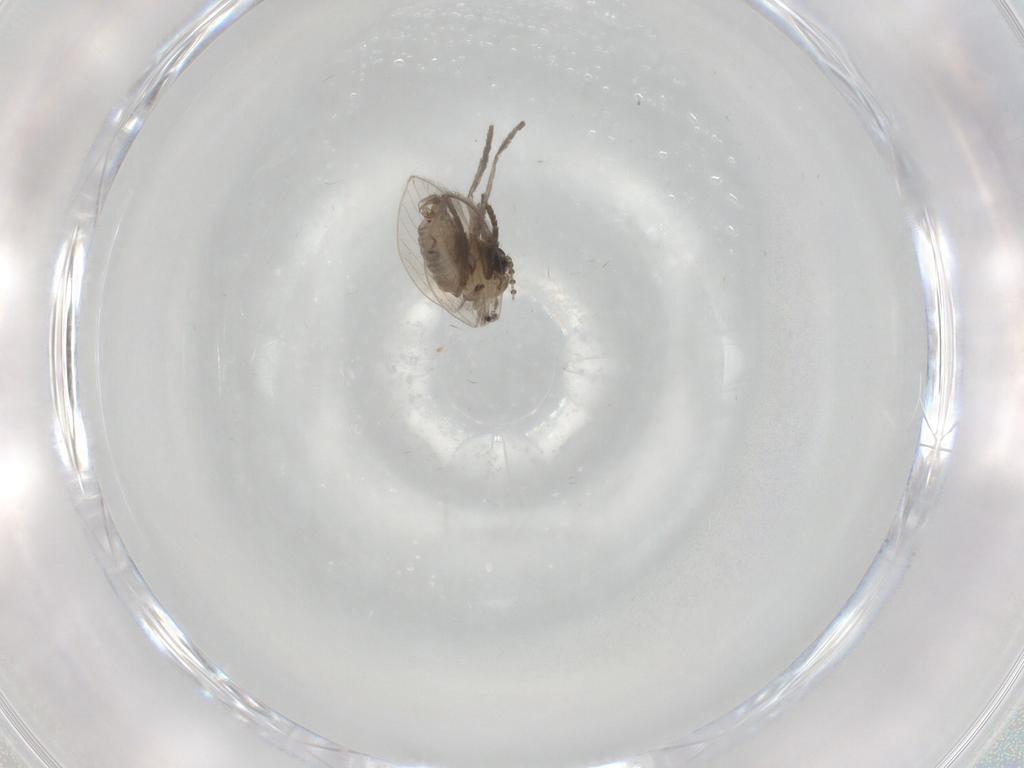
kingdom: Animalia
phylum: Arthropoda
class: Insecta
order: Diptera
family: Psychodidae
